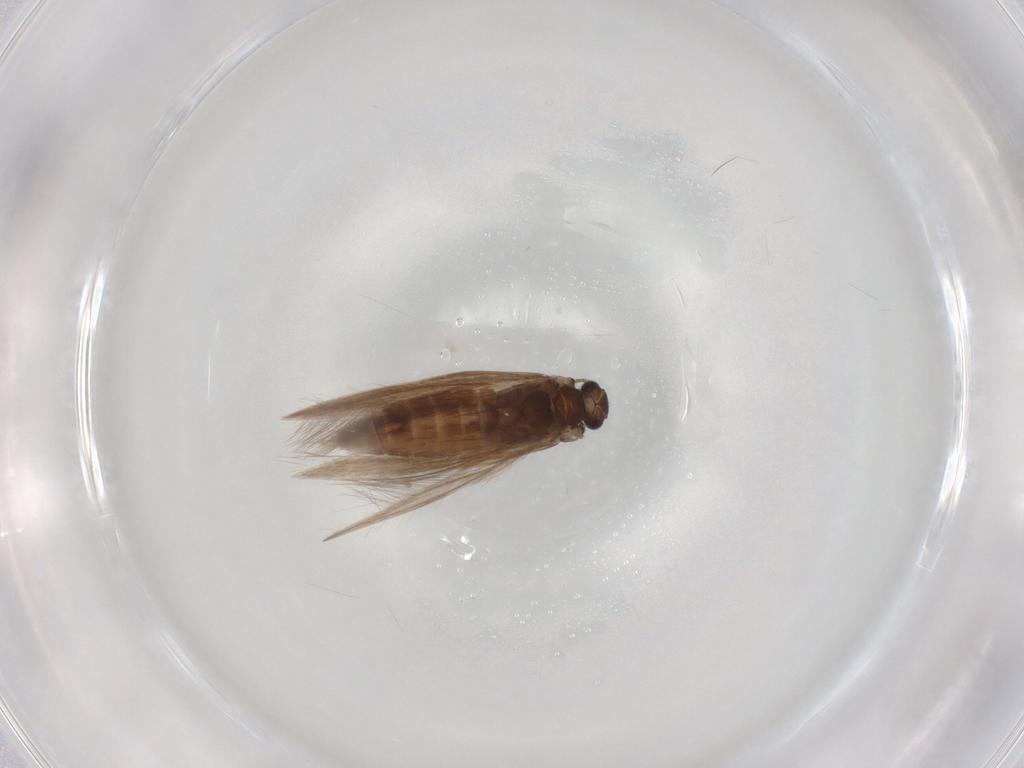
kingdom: Animalia
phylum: Arthropoda
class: Insecta
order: Trichoptera
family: Hydroptilidae
